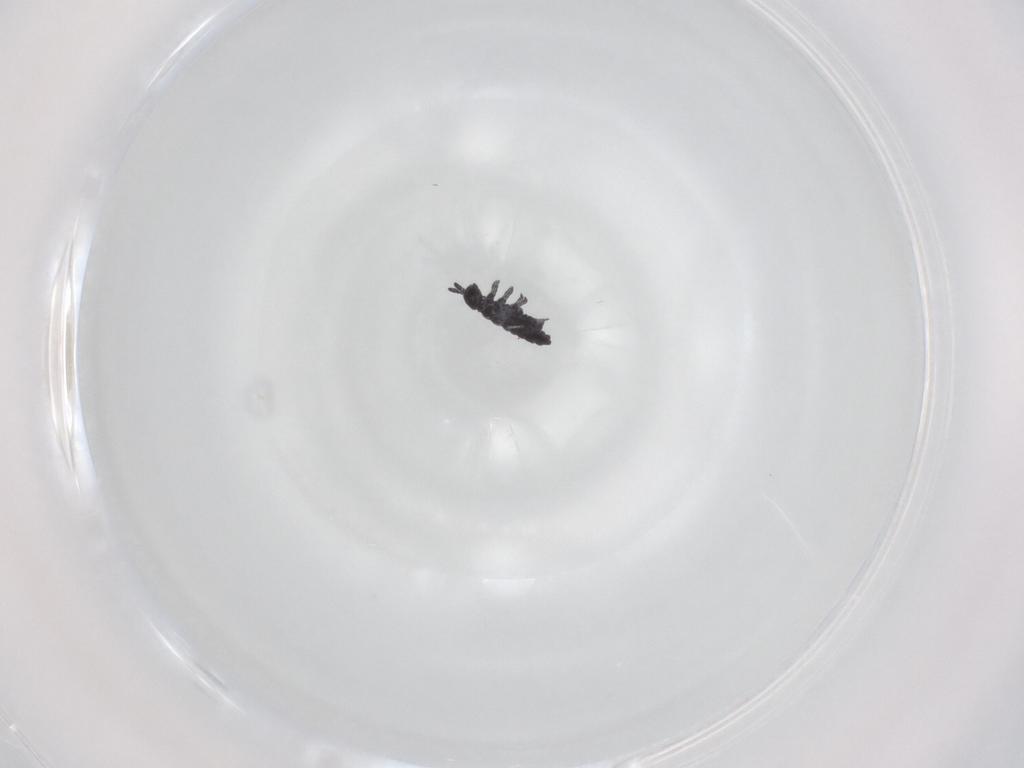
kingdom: Animalia
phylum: Arthropoda
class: Collembola
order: Poduromorpha
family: Hypogastruridae
